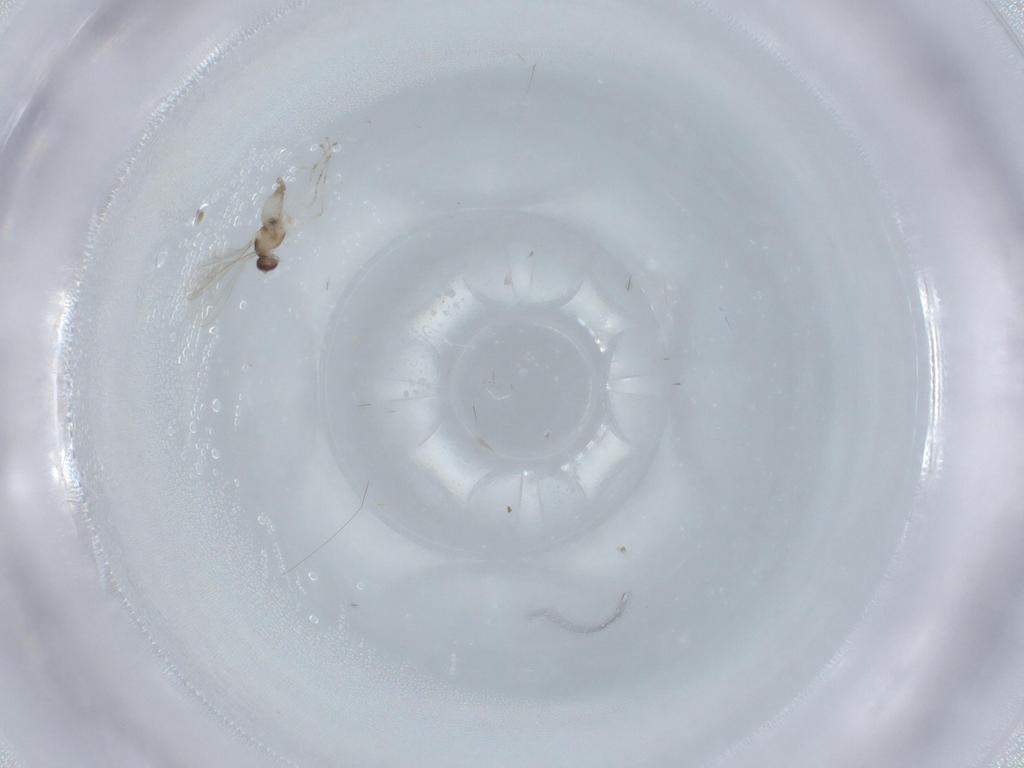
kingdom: Animalia
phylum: Arthropoda
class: Insecta
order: Diptera
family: Cecidomyiidae
